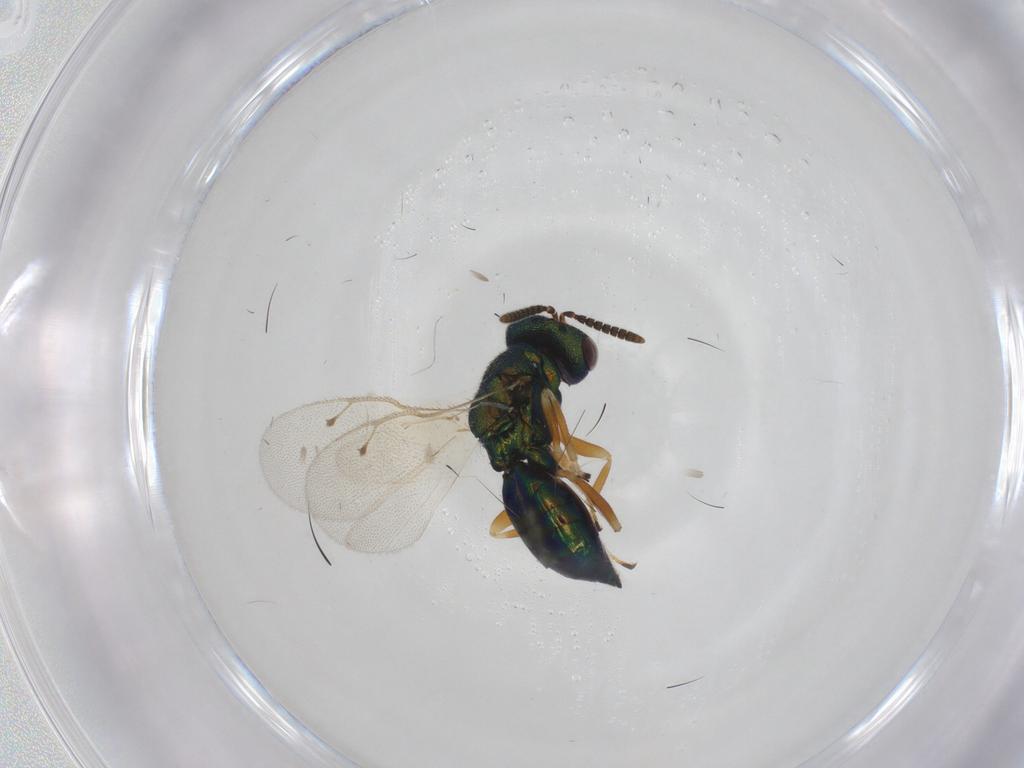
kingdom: Animalia
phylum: Arthropoda
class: Insecta
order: Hymenoptera
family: Pteromalidae
